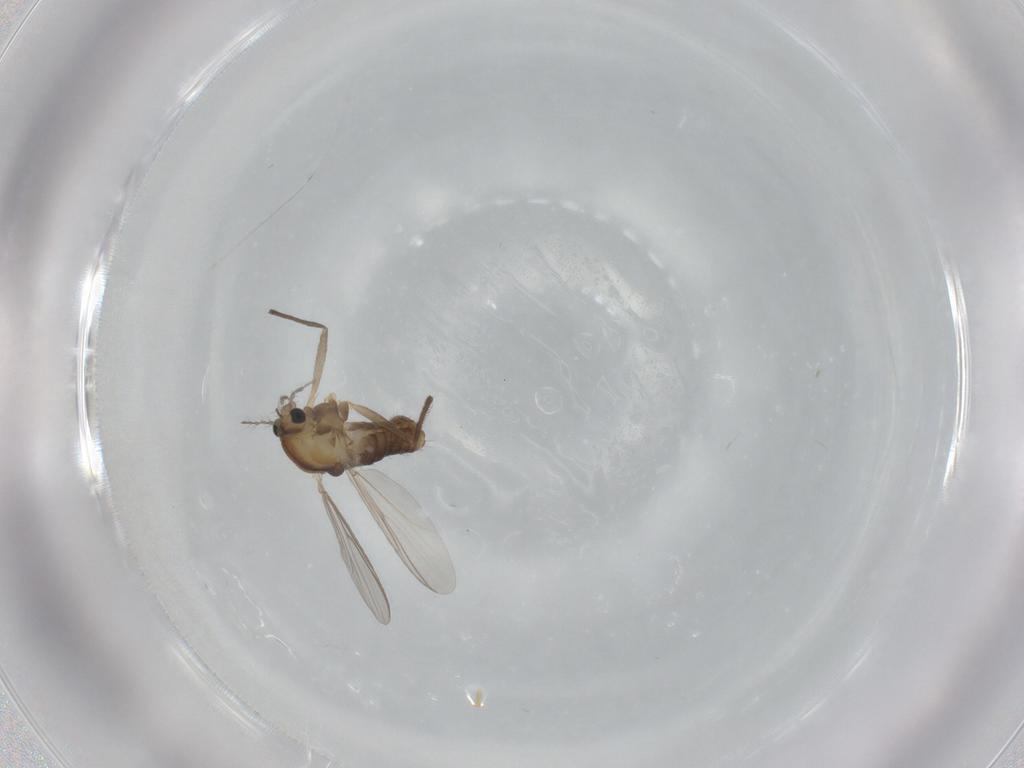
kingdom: Animalia
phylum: Arthropoda
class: Insecta
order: Diptera
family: Chironomidae
